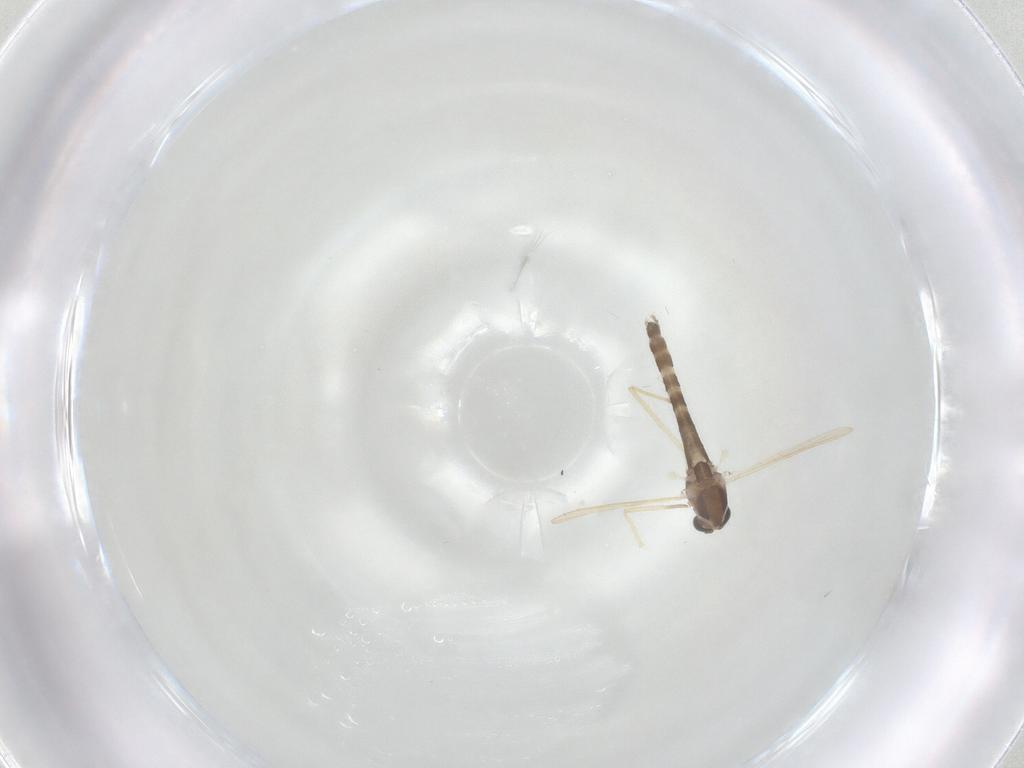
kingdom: Animalia
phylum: Arthropoda
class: Insecta
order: Diptera
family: Chironomidae
